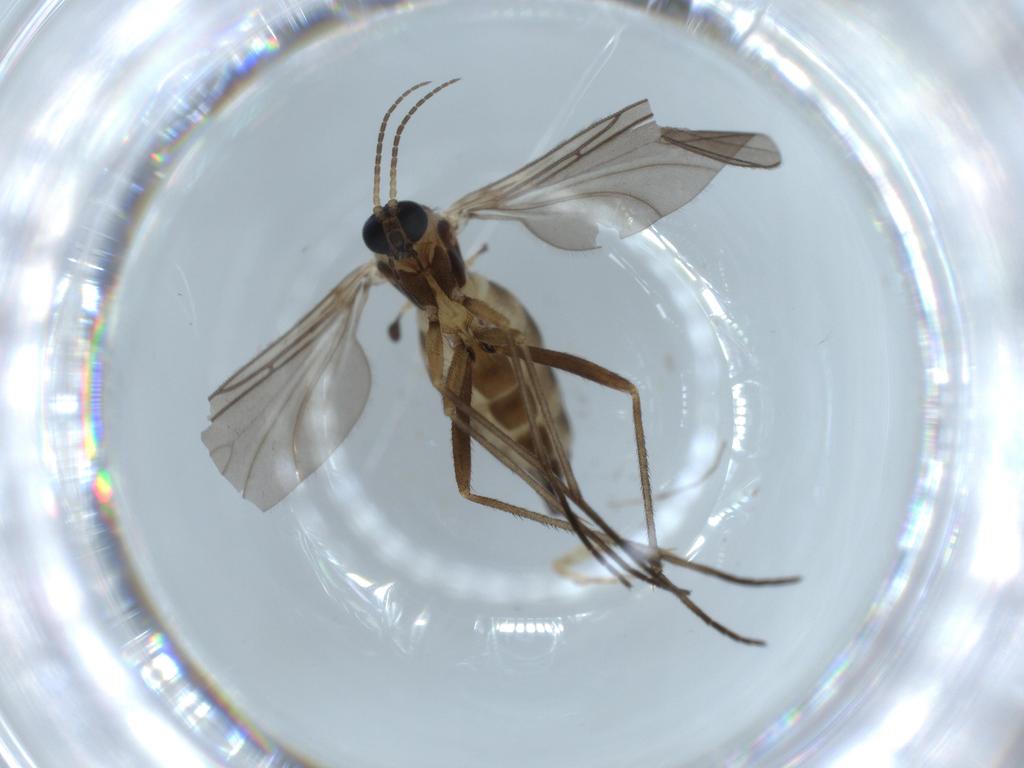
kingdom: Animalia
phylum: Arthropoda
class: Insecta
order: Diptera
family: Sciaridae
